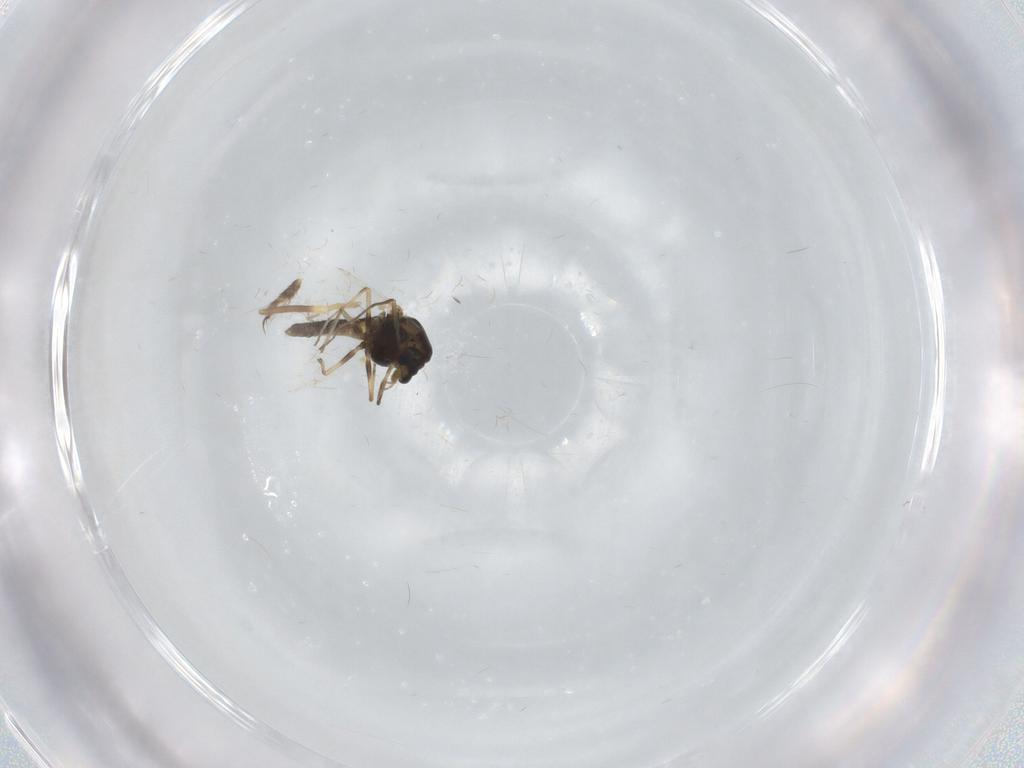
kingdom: Animalia
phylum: Arthropoda
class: Insecta
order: Diptera
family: Chironomidae
